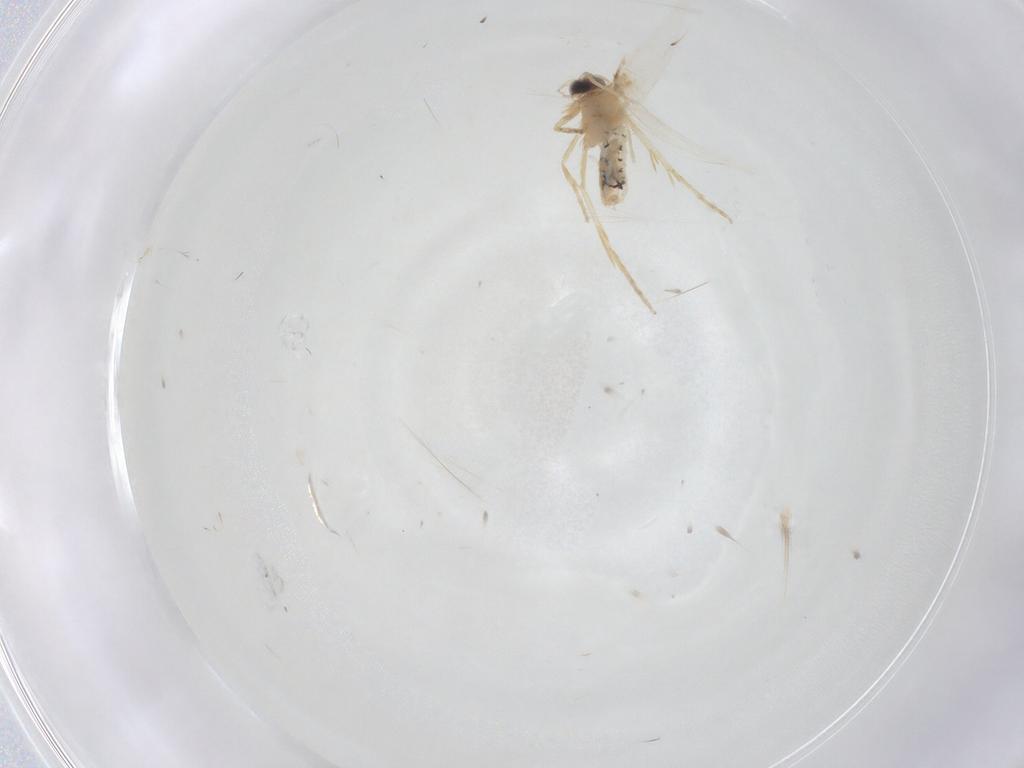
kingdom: Animalia
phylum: Arthropoda
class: Insecta
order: Lepidoptera
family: Nepticulidae
